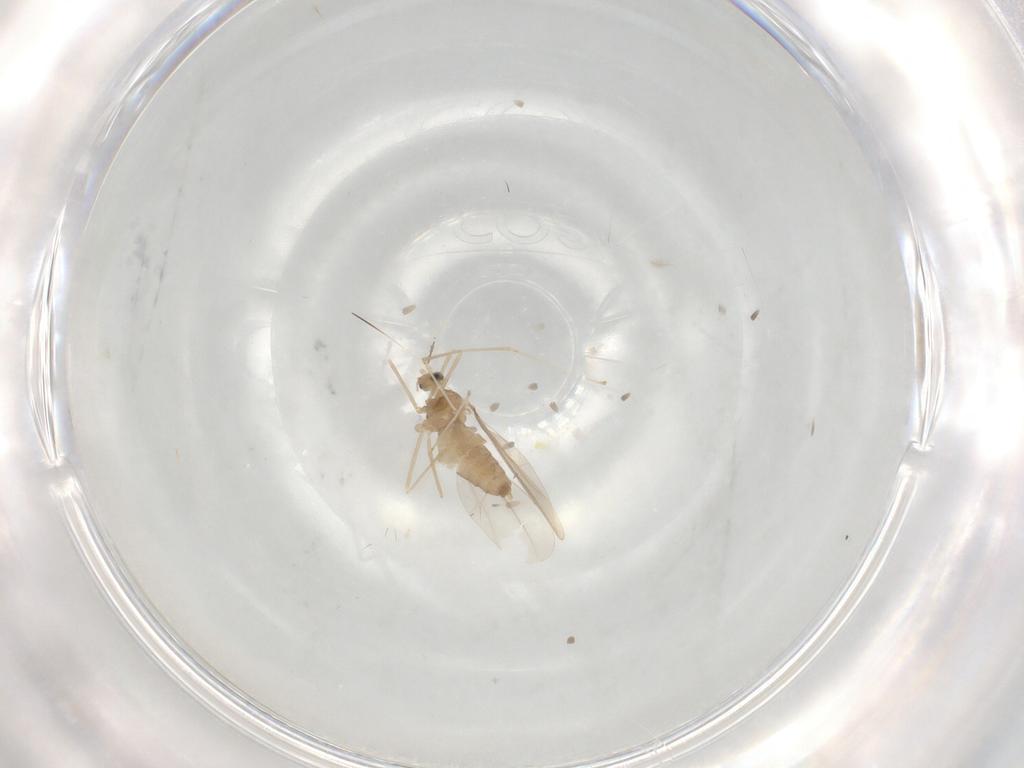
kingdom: Animalia
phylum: Arthropoda
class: Insecta
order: Diptera
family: Cecidomyiidae
